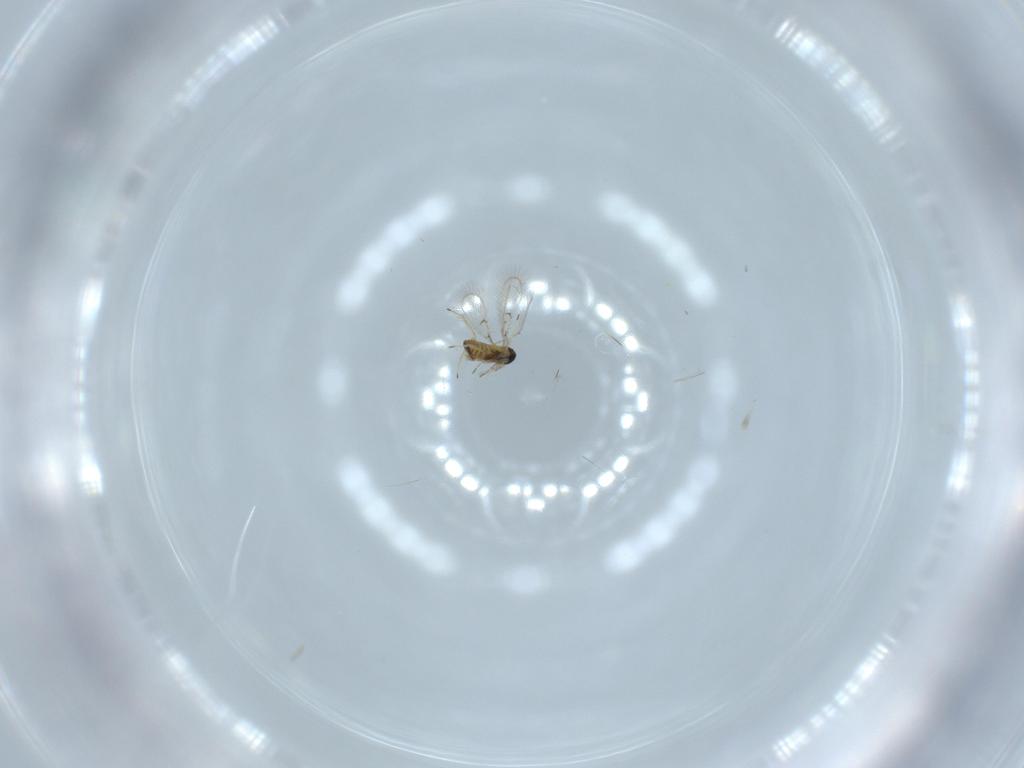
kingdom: Animalia
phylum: Arthropoda
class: Insecta
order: Hymenoptera
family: Trichogrammatidae
